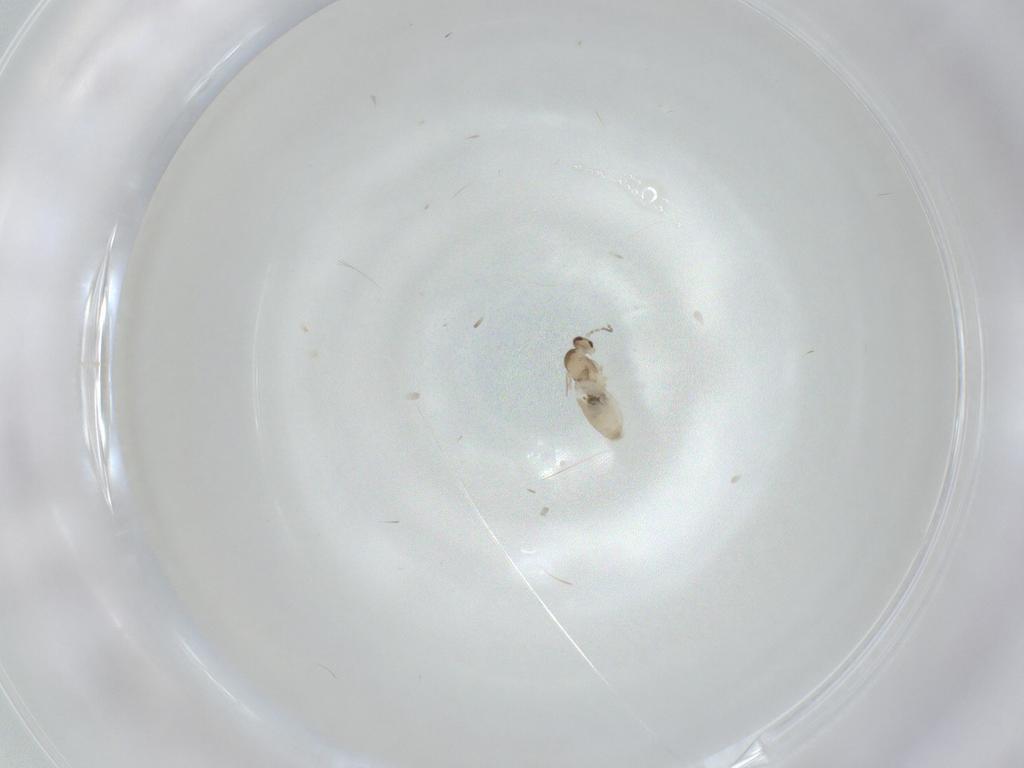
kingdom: Animalia
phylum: Arthropoda
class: Insecta
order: Diptera
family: Cecidomyiidae
